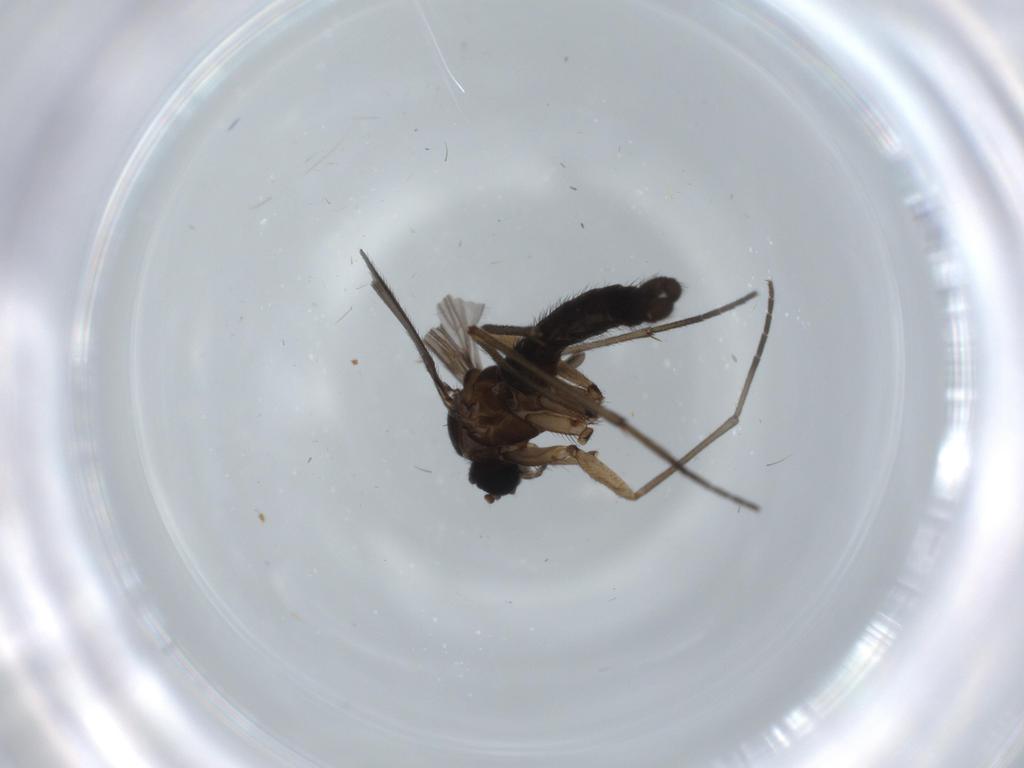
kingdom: Animalia
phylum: Arthropoda
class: Insecta
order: Diptera
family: Sciaridae
